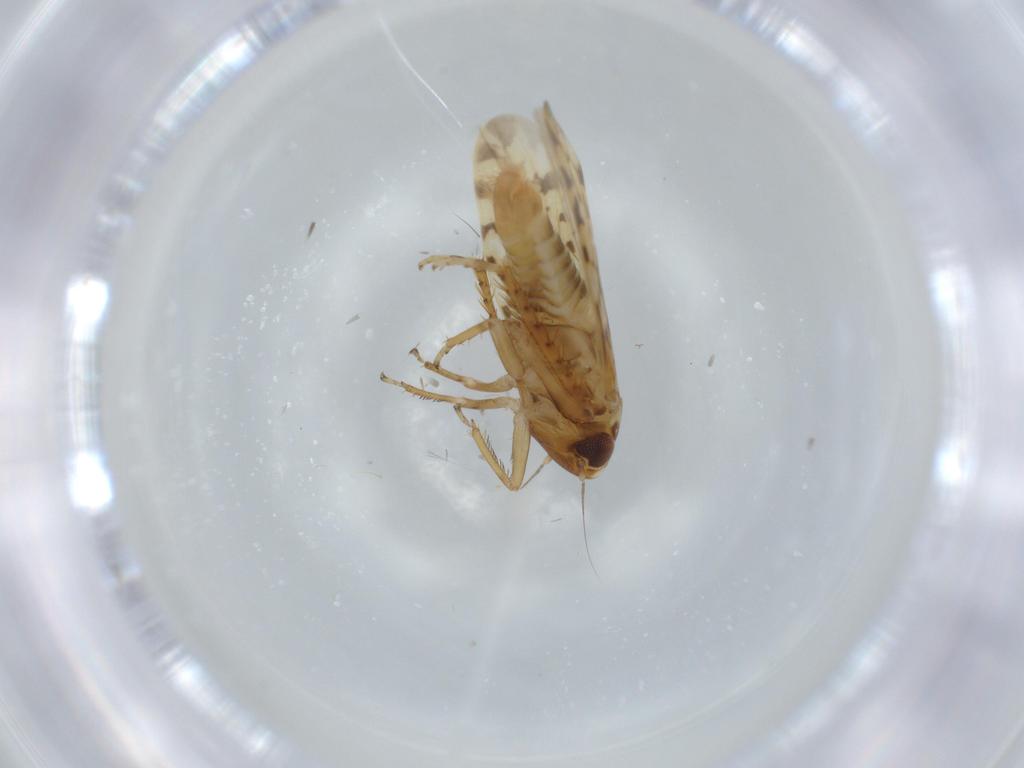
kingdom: Animalia
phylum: Arthropoda
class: Insecta
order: Hemiptera
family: Cicadellidae
